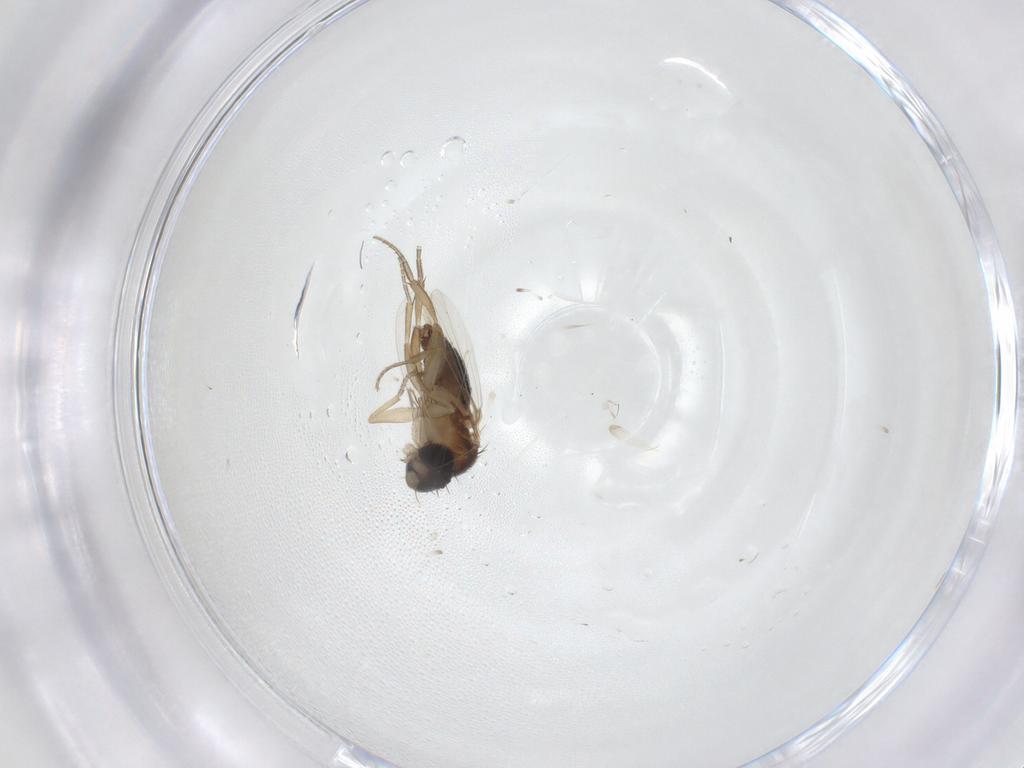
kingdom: Animalia
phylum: Arthropoda
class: Insecta
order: Diptera
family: Phoridae
